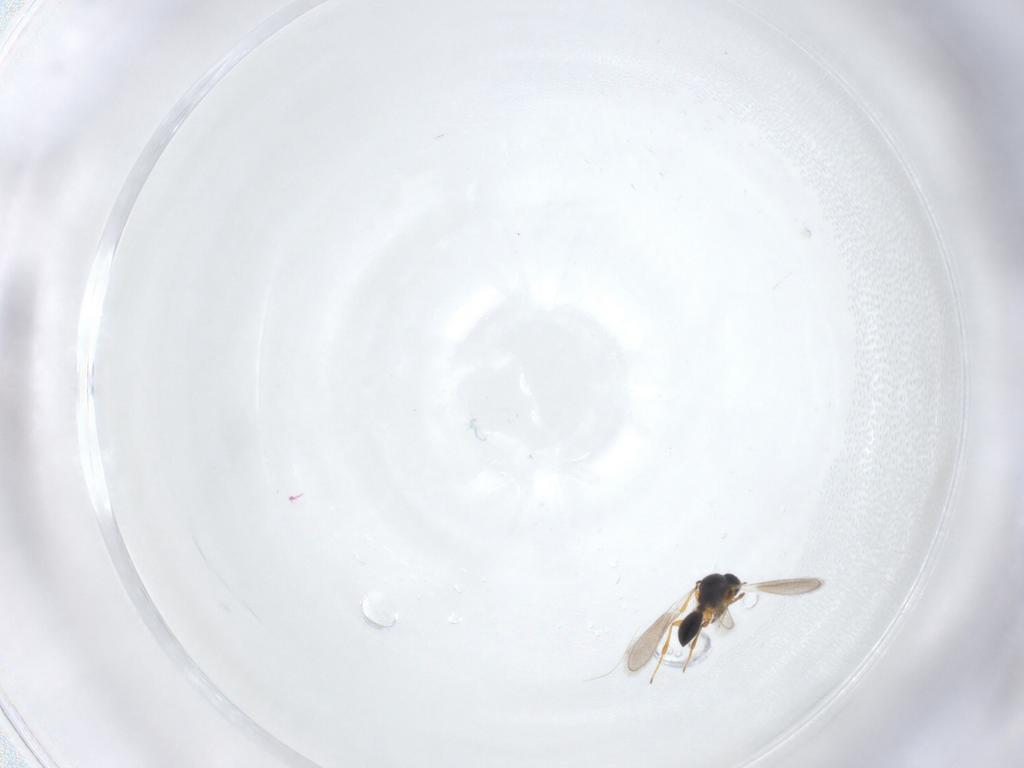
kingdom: Animalia
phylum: Arthropoda
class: Insecta
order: Hymenoptera
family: Platygastridae
